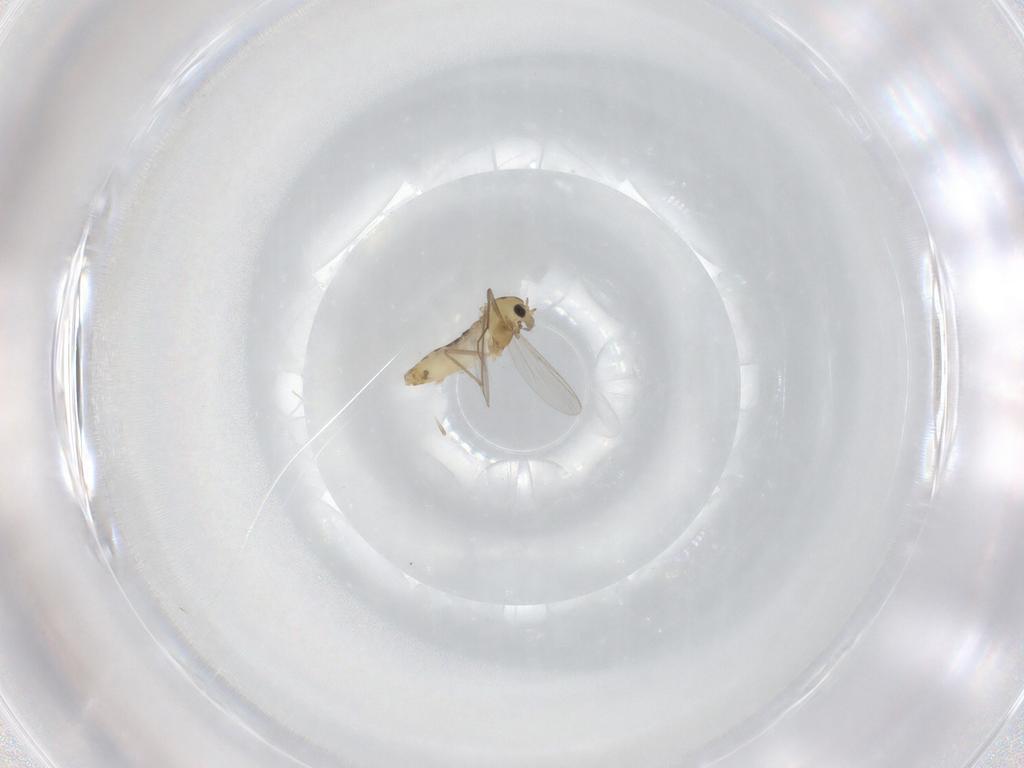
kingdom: Animalia
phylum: Arthropoda
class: Insecta
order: Diptera
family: Chironomidae
